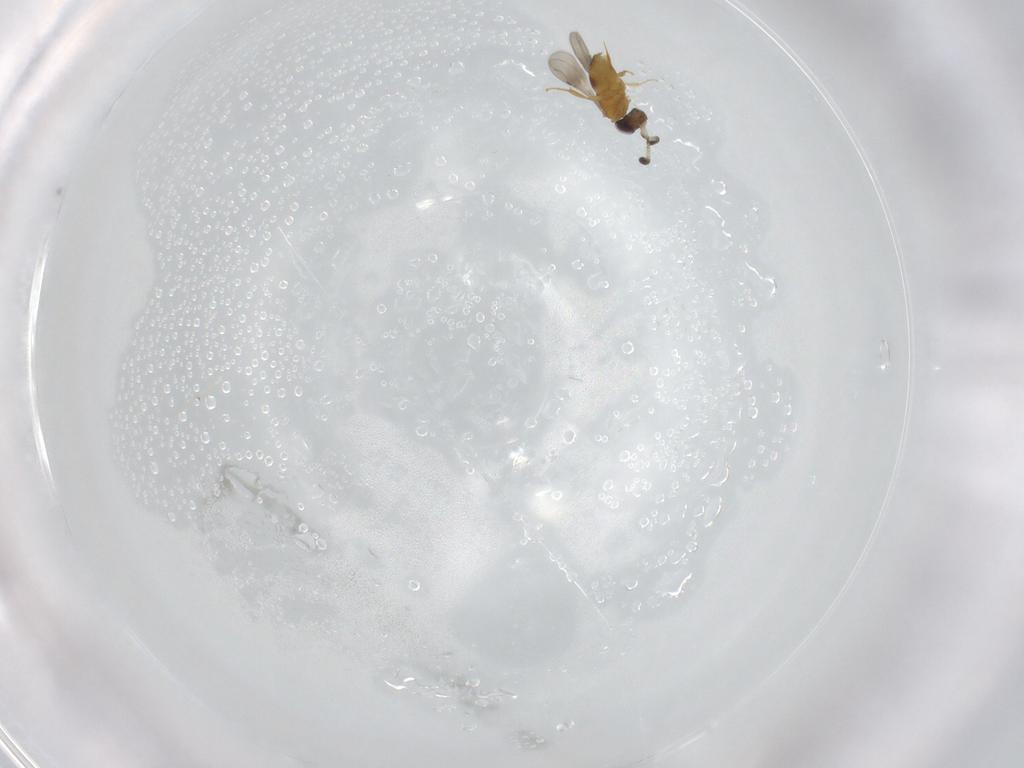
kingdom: Animalia
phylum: Arthropoda
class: Insecta
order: Hymenoptera
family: Ceraphronidae
